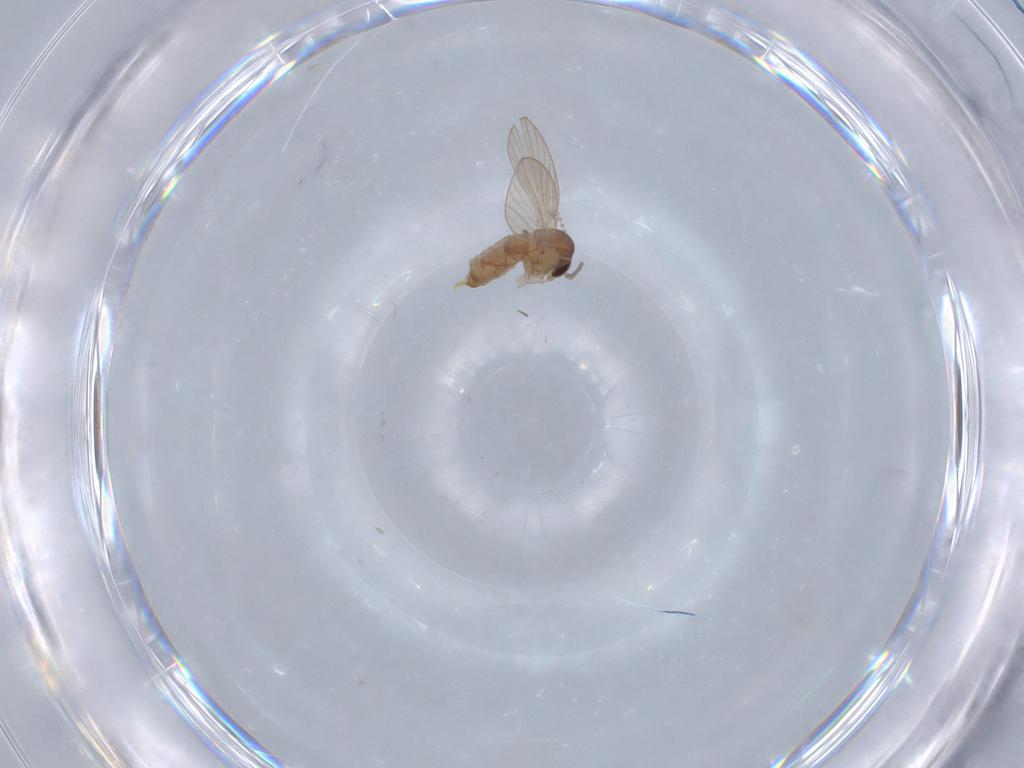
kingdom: Animalia
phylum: Arthropoda
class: Insecta
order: Diptera
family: Psychodidae
